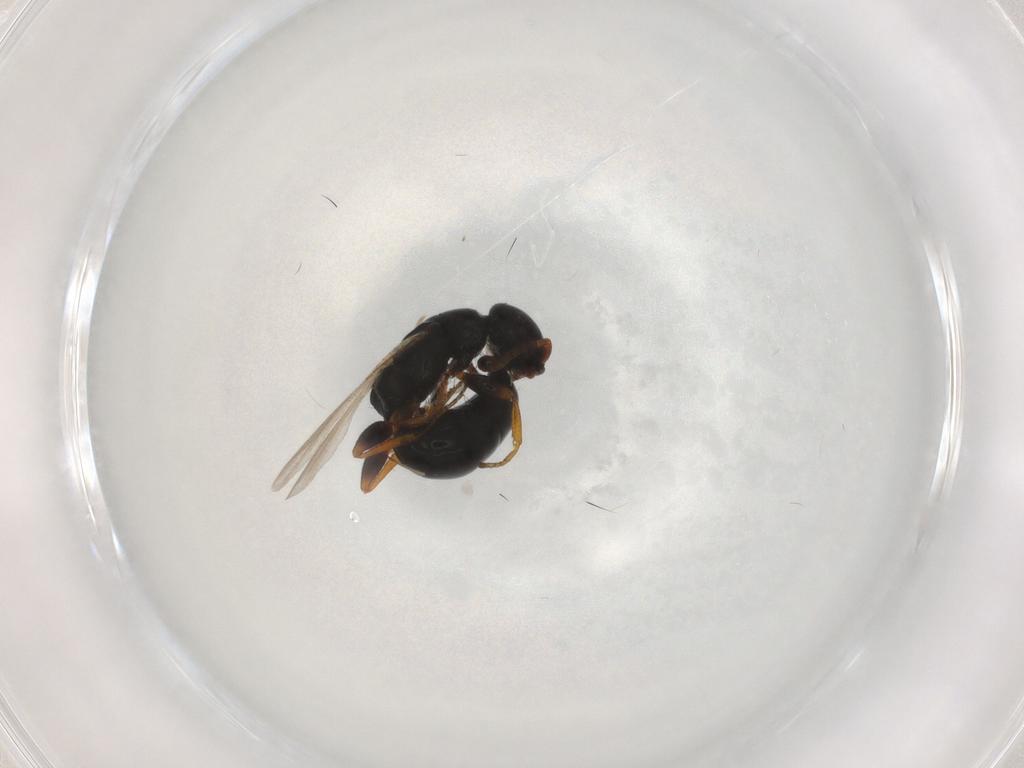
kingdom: Animalia
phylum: Arthropoda
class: Insecta
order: Hymenoptera
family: Bethylidae
